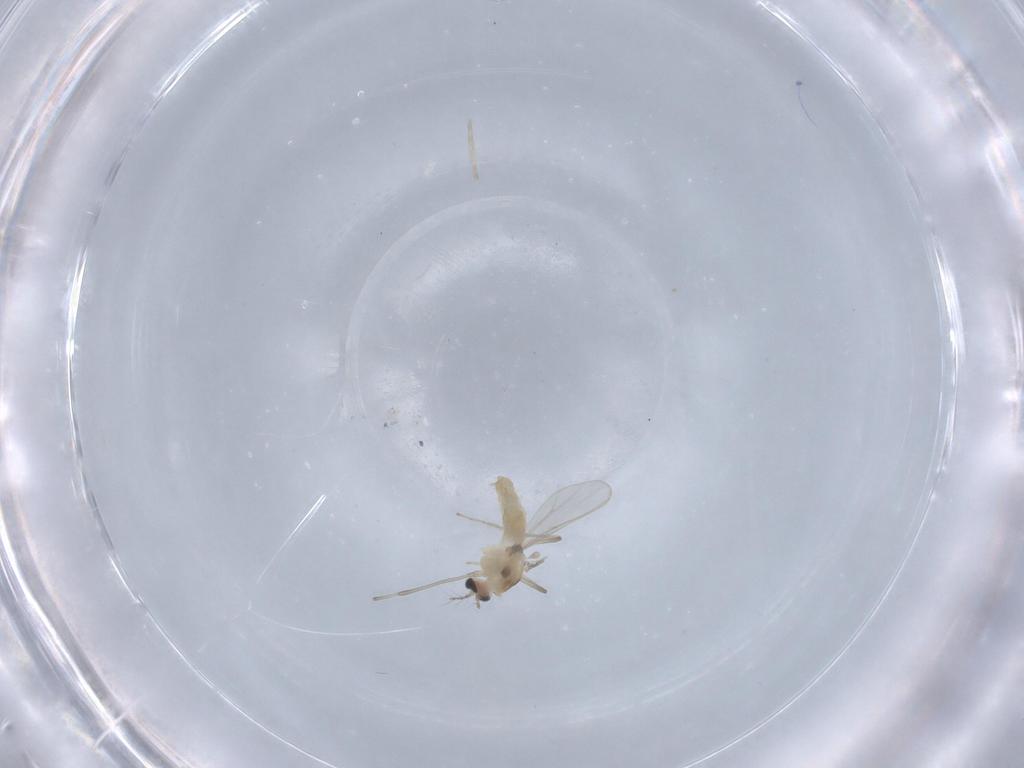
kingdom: Animalia
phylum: Arthropoda
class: Insecta
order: Diptera
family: Chironomidae
